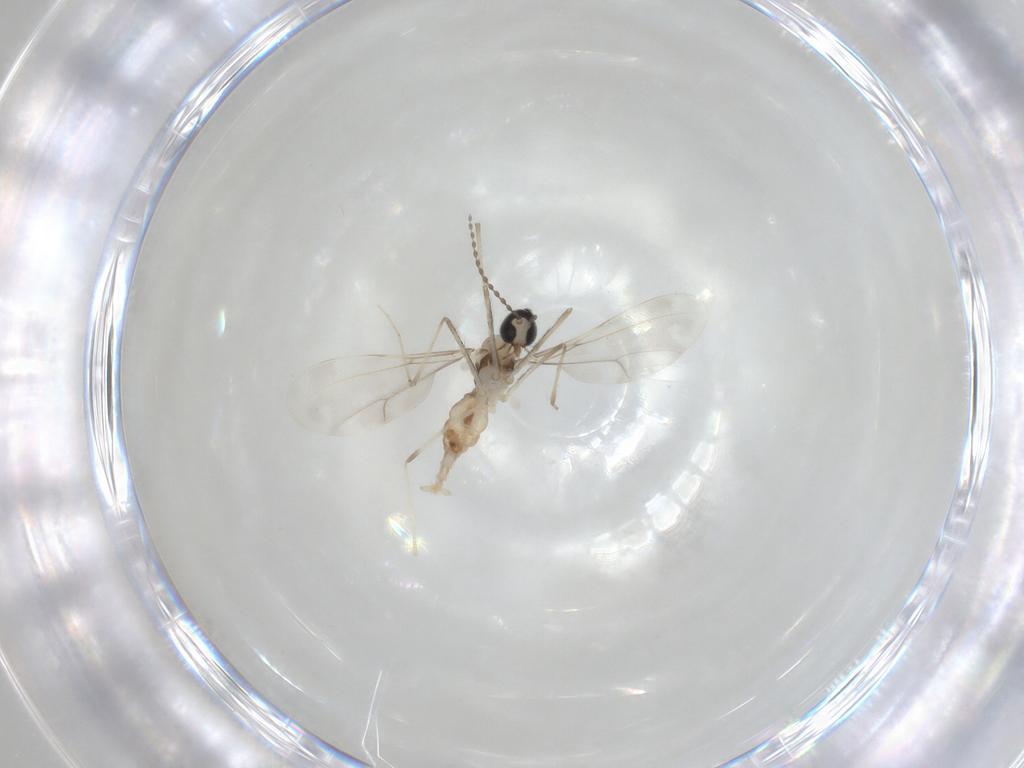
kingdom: Animalia
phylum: Arthropoda
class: Insecta
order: Diptera
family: Cecidomyiidae
